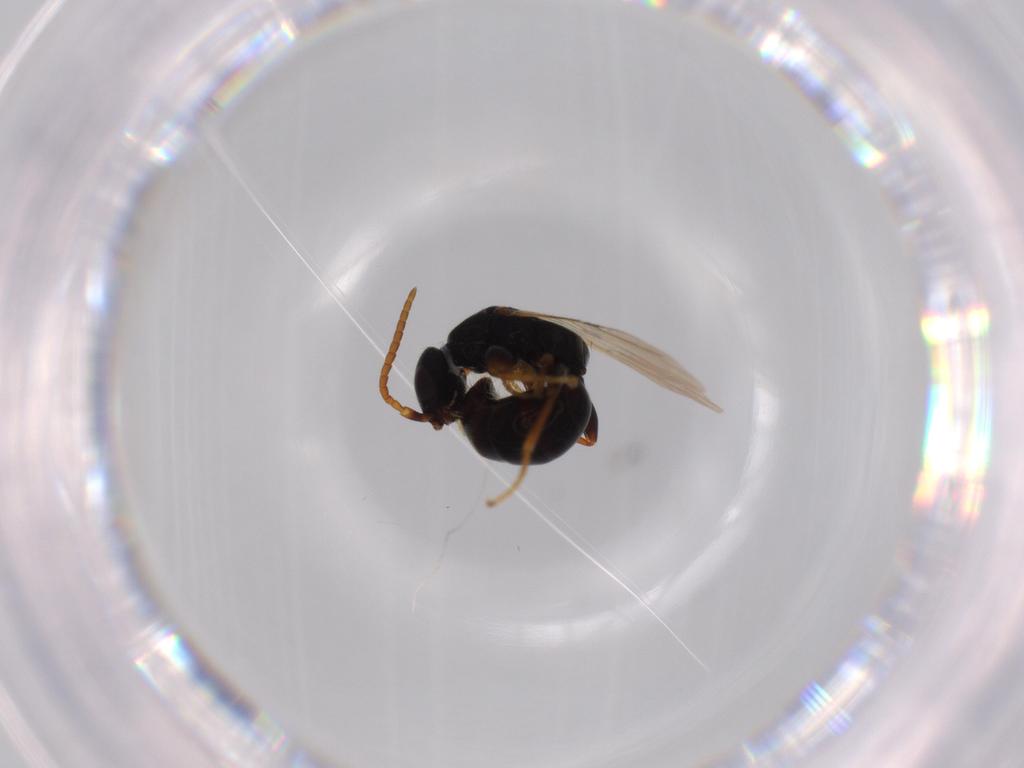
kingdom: Animalia
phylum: Arthropoda
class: Insecta
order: Hymenoptera
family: Bethylidae
